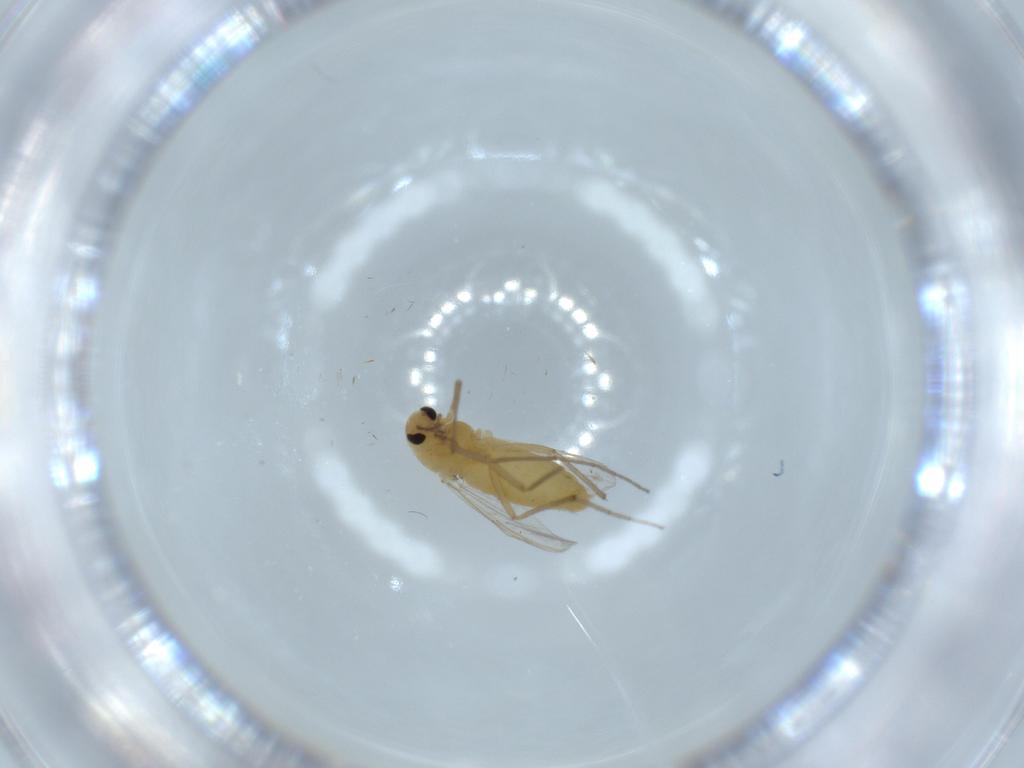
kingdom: Animalia
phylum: Arthropoda
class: Insecta
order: Diptera
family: Chironomidae
